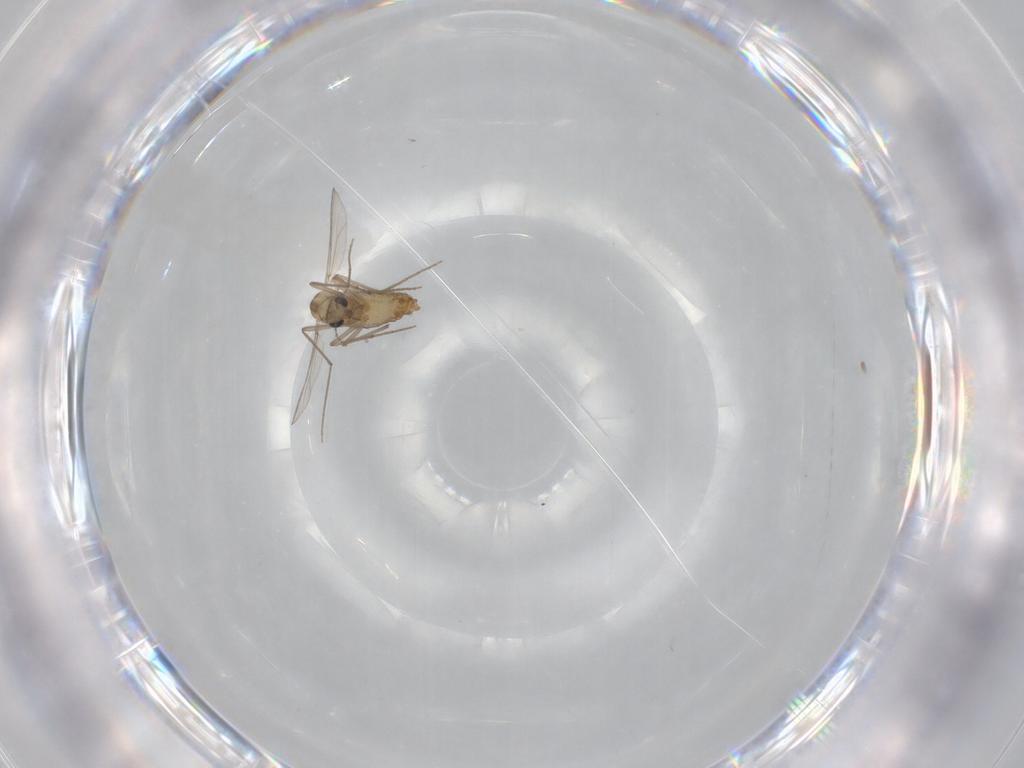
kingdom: Animalia
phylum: Arthropoda
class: Insecta
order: Diptera
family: Chironomidae
